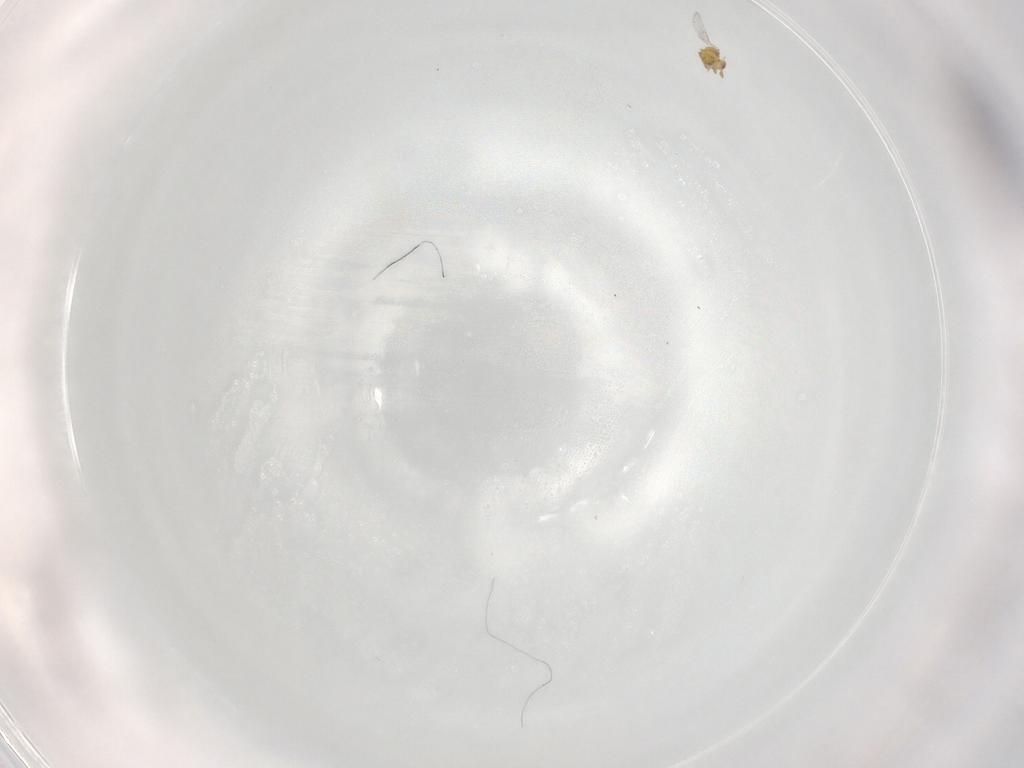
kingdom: Animalia
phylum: Arthropoda
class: Insecta
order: Hymenoptera
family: Trichogrammatidae
